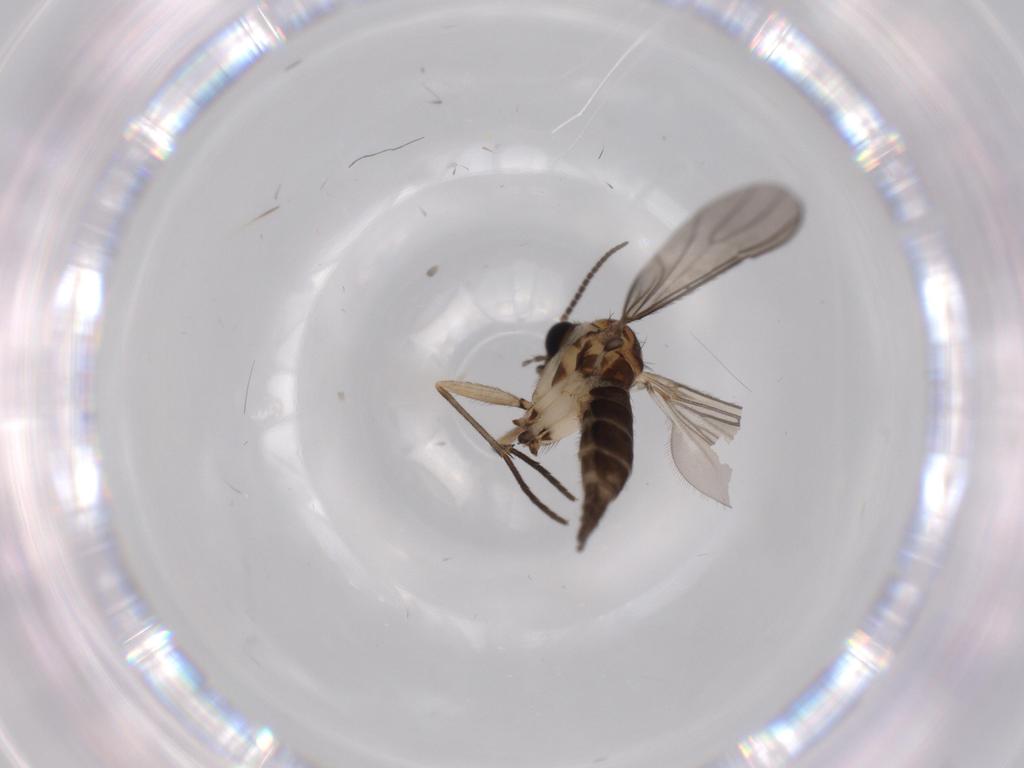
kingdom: Animalia
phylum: Arthropoda
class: Insecta
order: Diptera
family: Sciaridae
